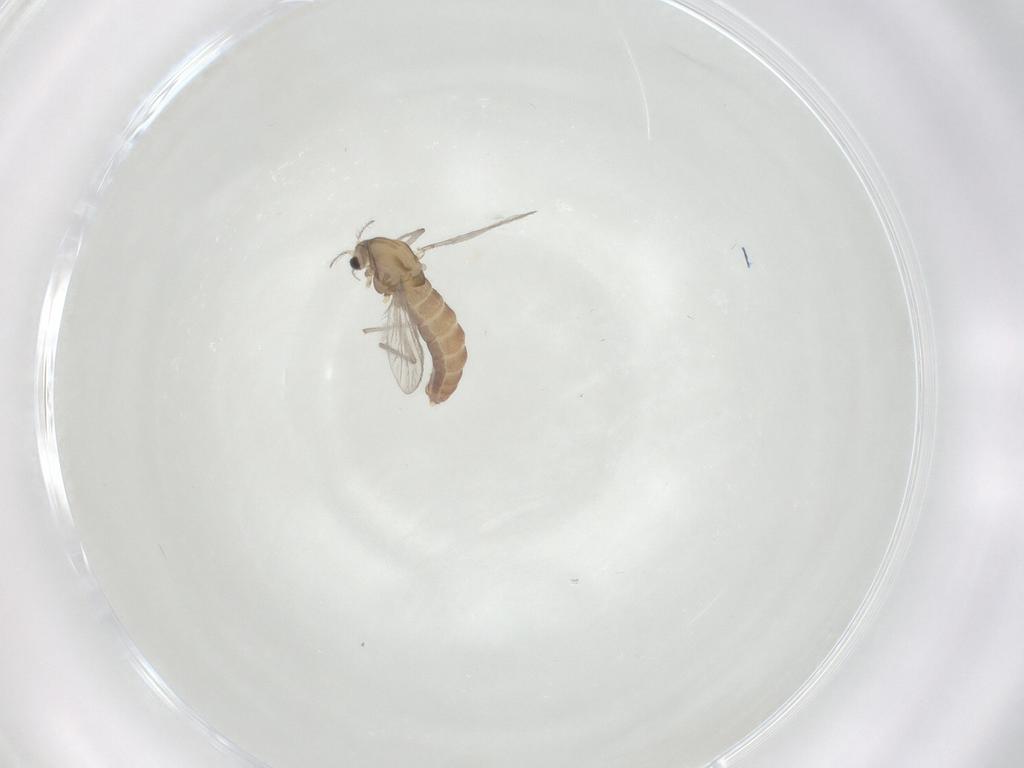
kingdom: Animalia
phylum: Arthropoda
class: Insecta
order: Diptera
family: Chironomidae
